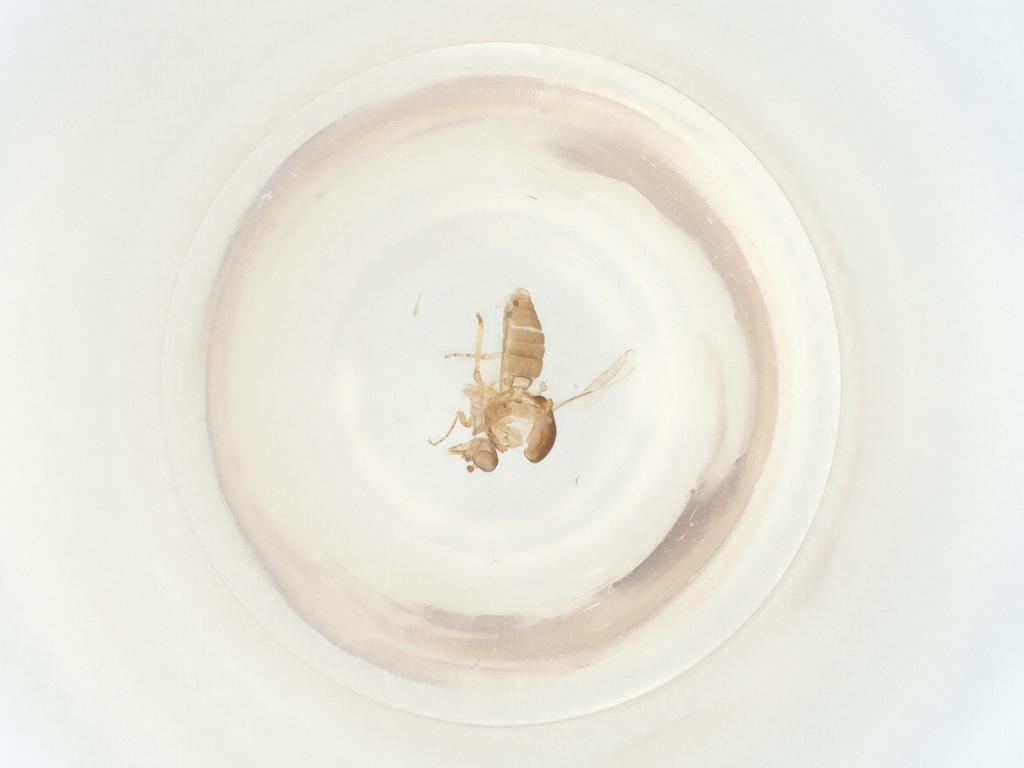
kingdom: Animalia
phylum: Arthropoda
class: Insecta
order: Diptera
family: Ceratopogonidae
